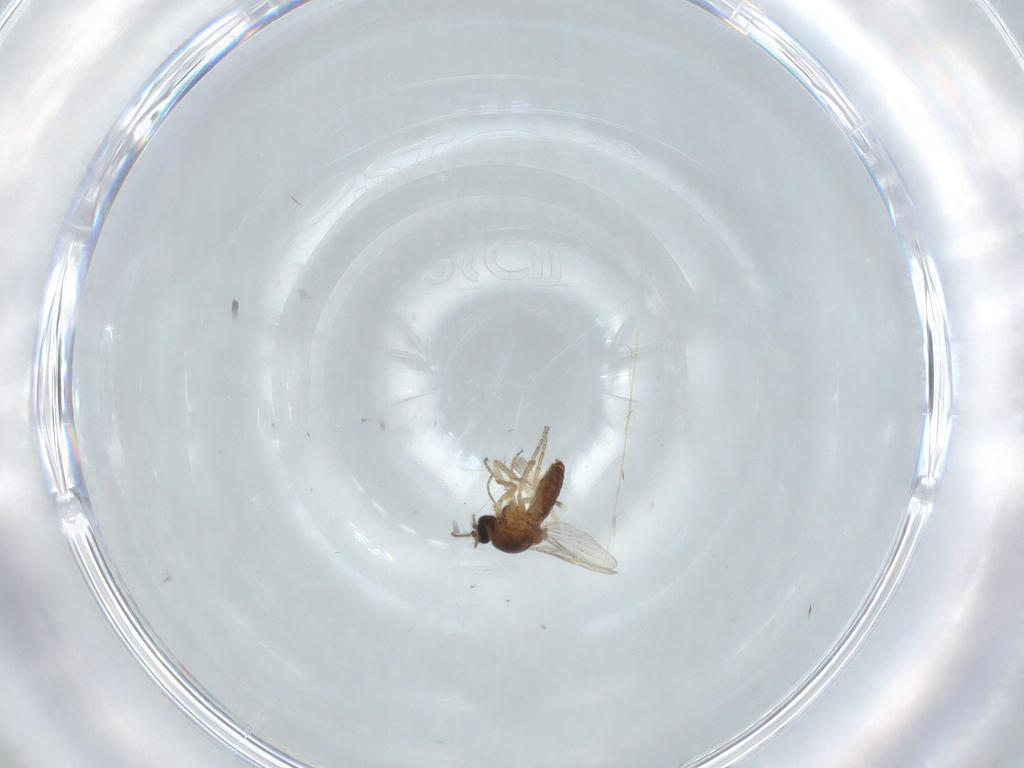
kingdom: Animalia
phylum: Arthropoda
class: Insecta
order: Diptera
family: Chironomidae
